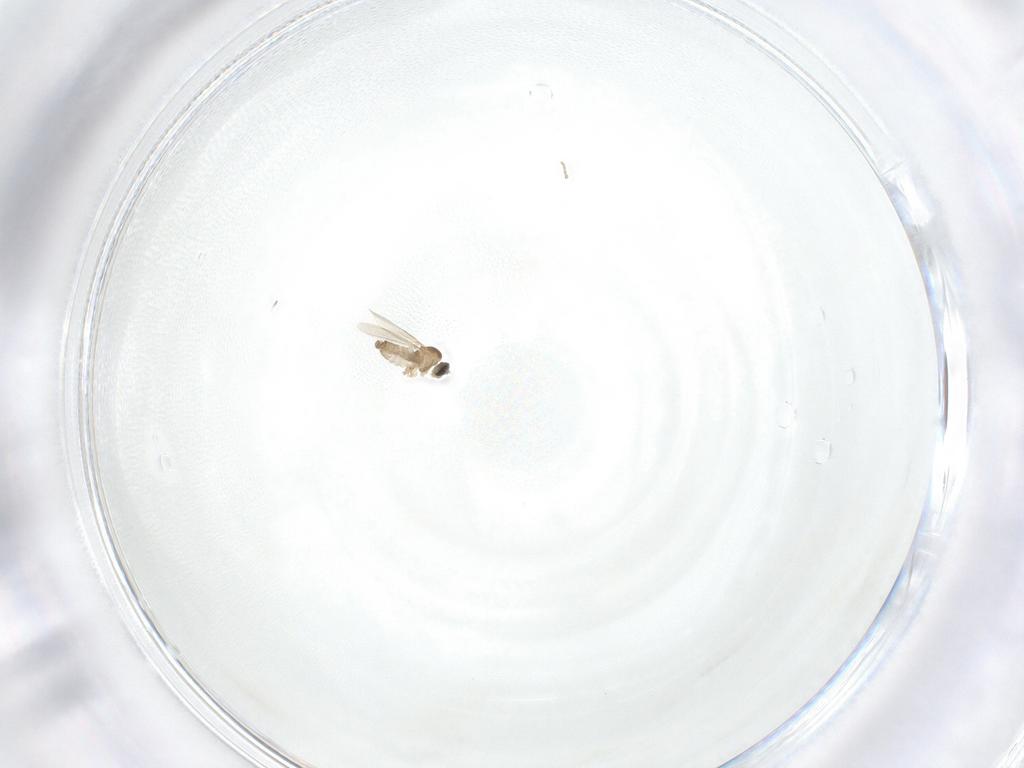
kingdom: Animalia
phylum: Arthropoda
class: Insecta
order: Diptera
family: Cecidomyiidae
